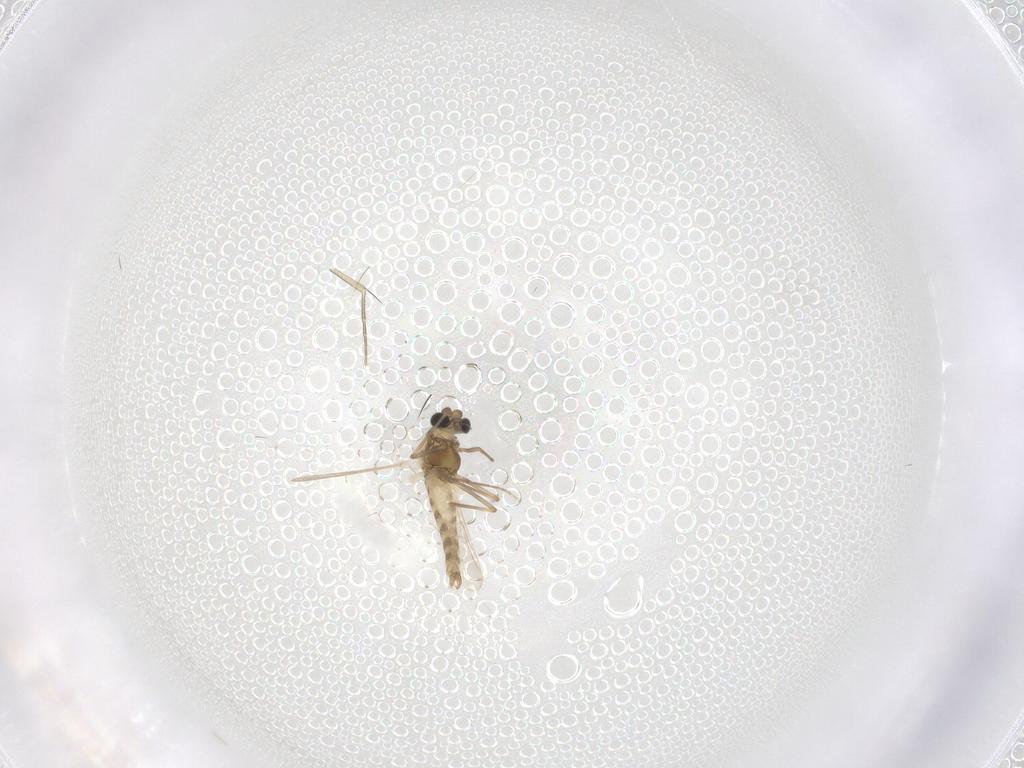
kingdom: Animalia
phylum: Arthropoda
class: Insecta
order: Diptera
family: Chironomidae
